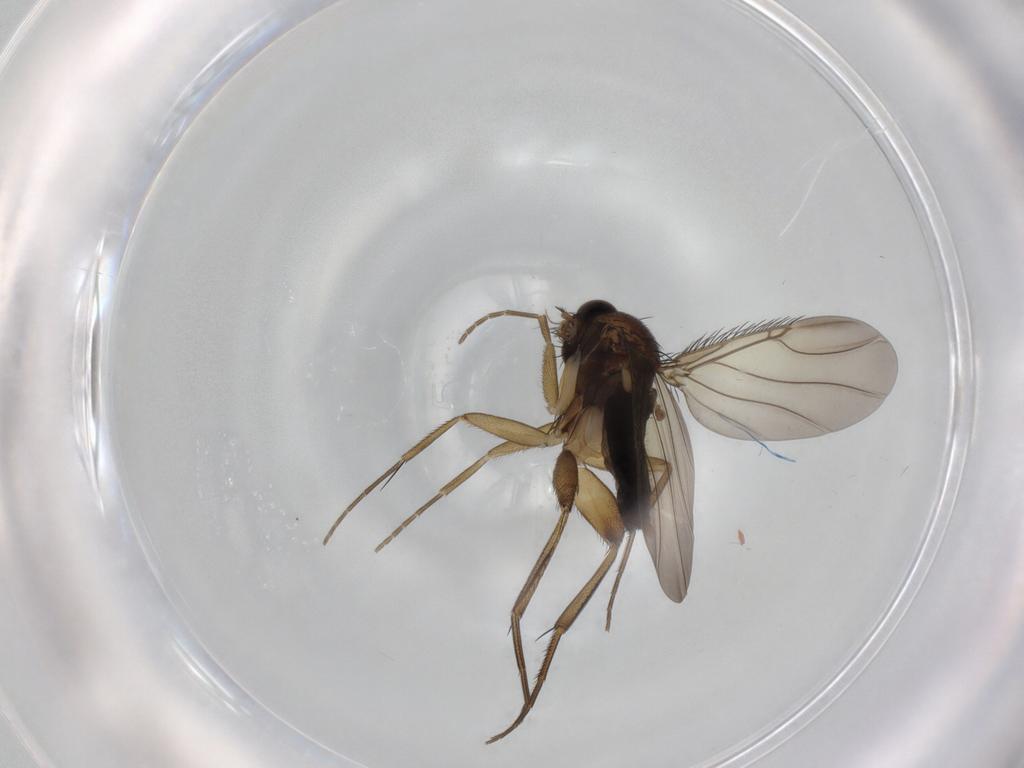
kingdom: Animalia
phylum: Arthropoda
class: Insecta
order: Diptera
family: Phoridae
